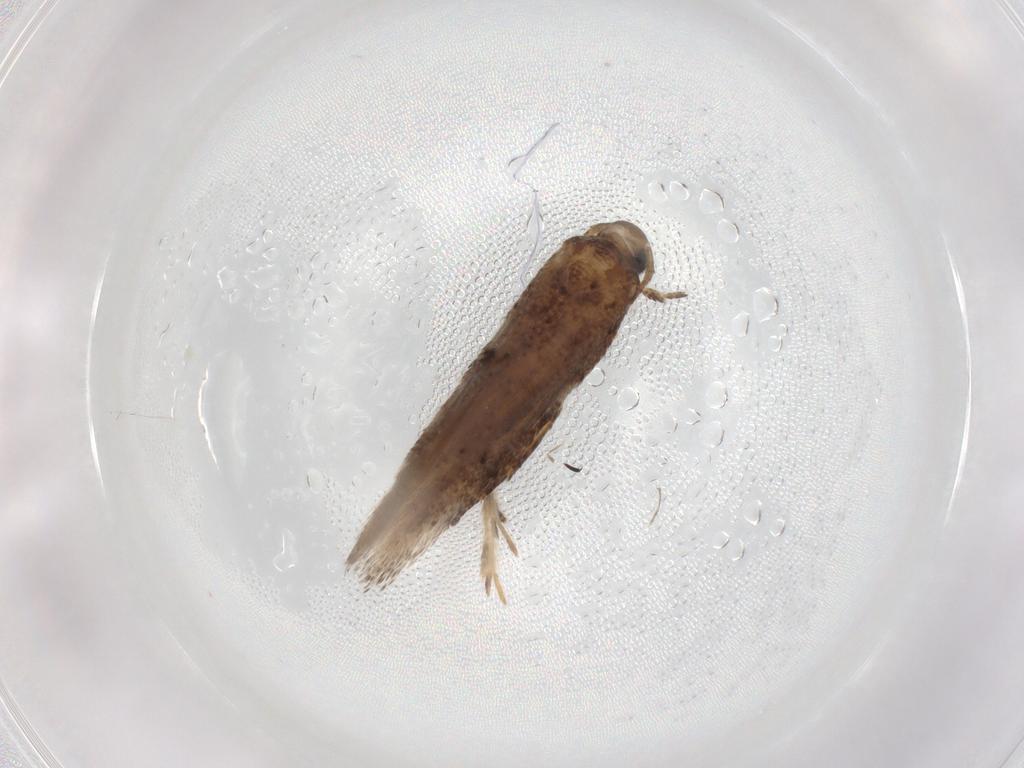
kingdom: Animalia
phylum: Arthropoda
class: Insecta
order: Lepidoptera
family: Gelechiidae
